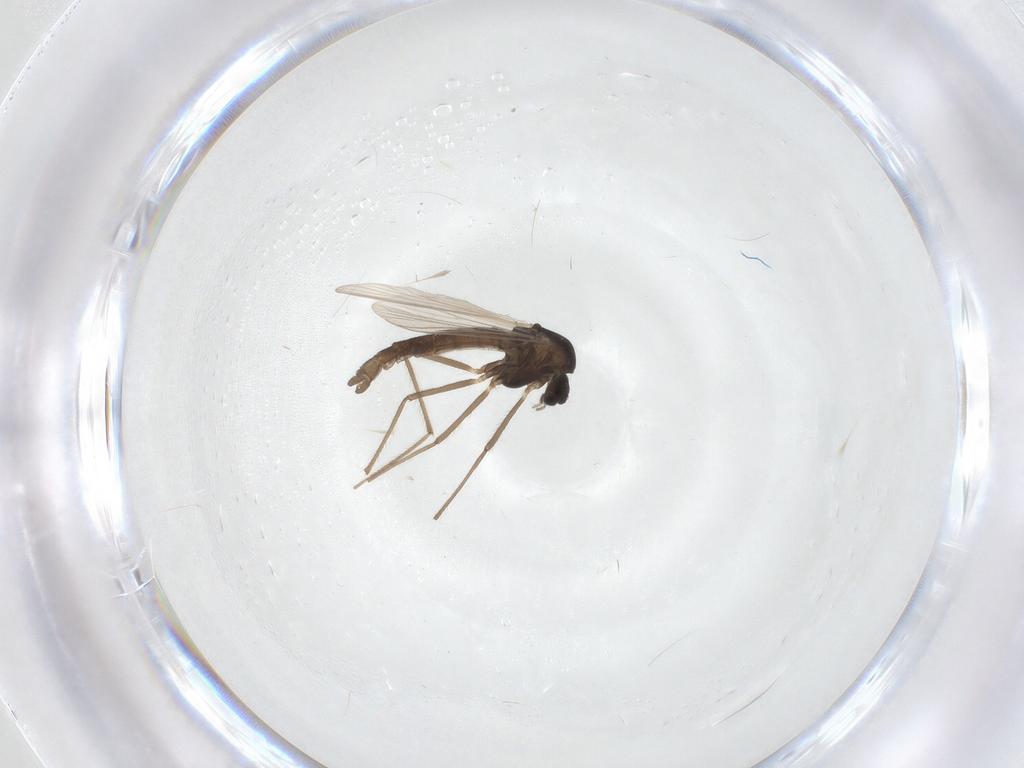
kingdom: Animalia
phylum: Arthropoda
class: Insecta
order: Diptera
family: Chironomidae
